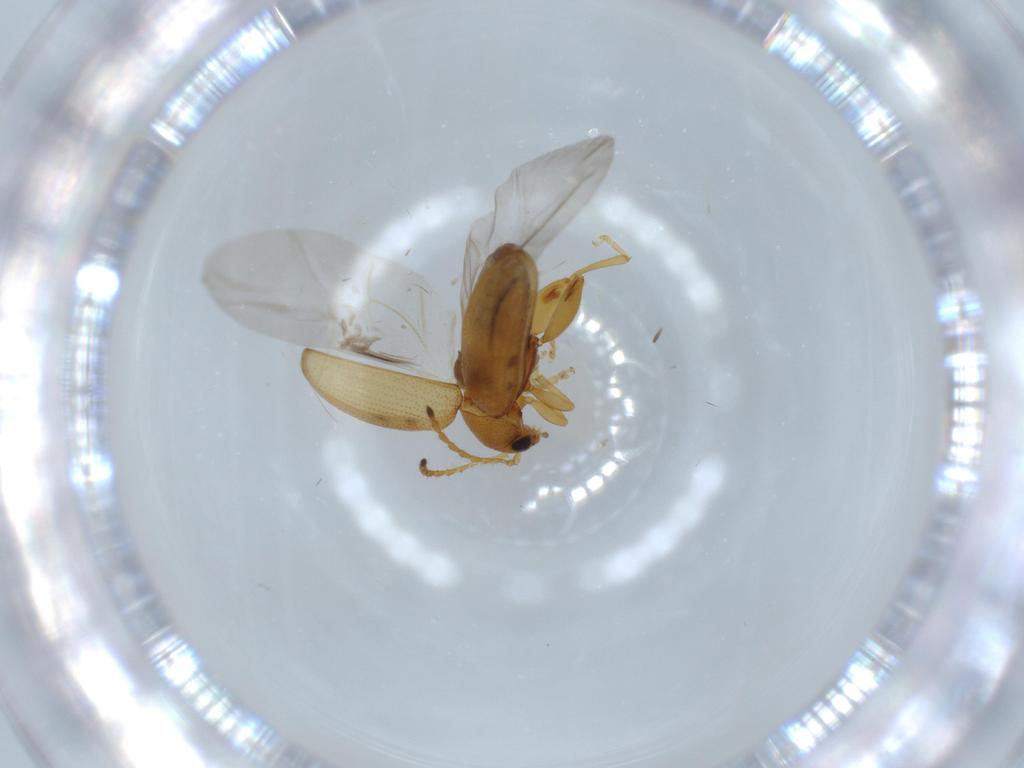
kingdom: Animalia
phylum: Arthropoda
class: Insecta
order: Coleoptera
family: Chrysomelidae
